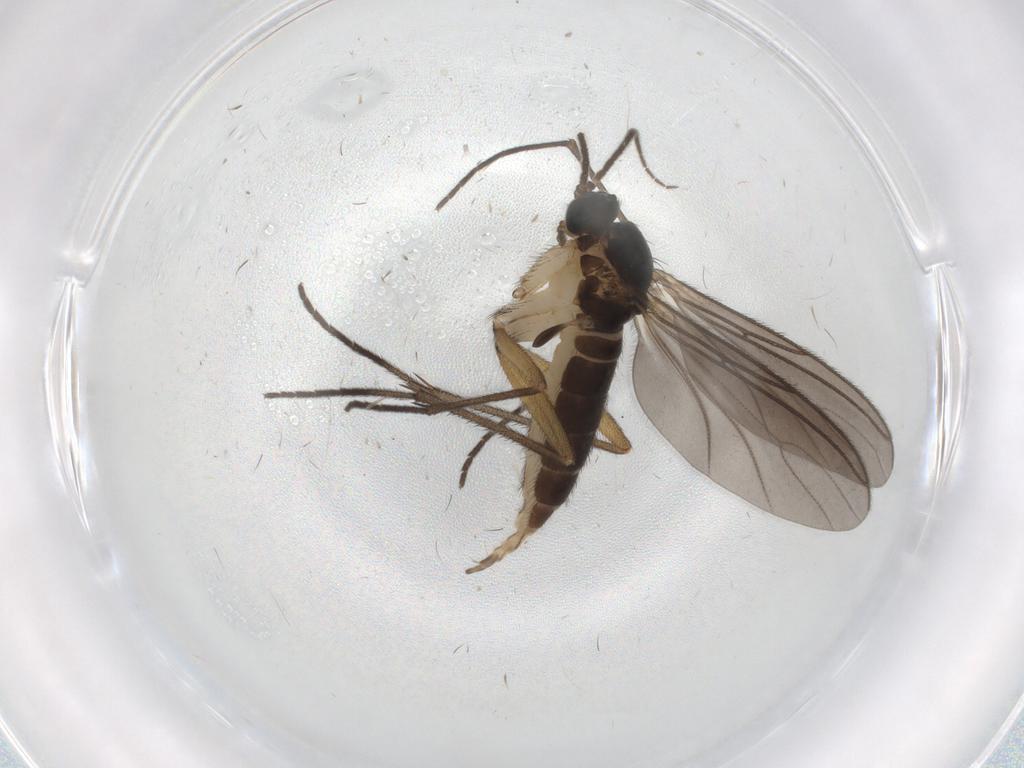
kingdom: Animalia
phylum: Arthropoda
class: Insecta
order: Diptera
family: Sciaridae
